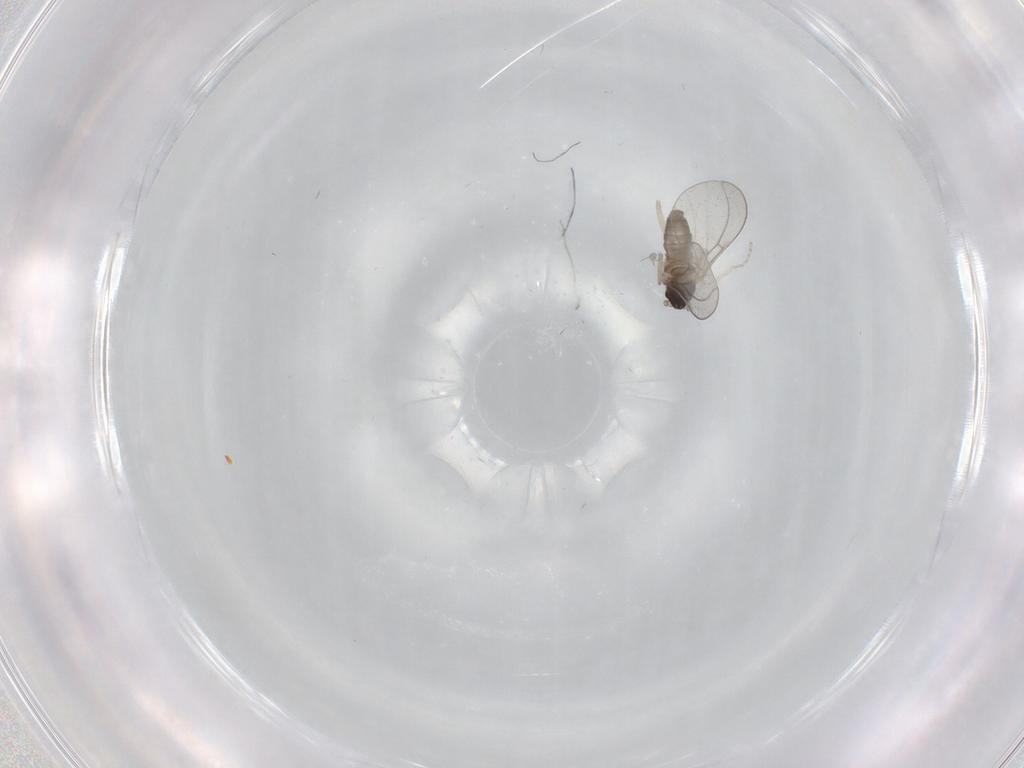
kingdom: Animalia
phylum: Arthropoda
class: Insecta
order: Diptera
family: Cecidomyiidae
